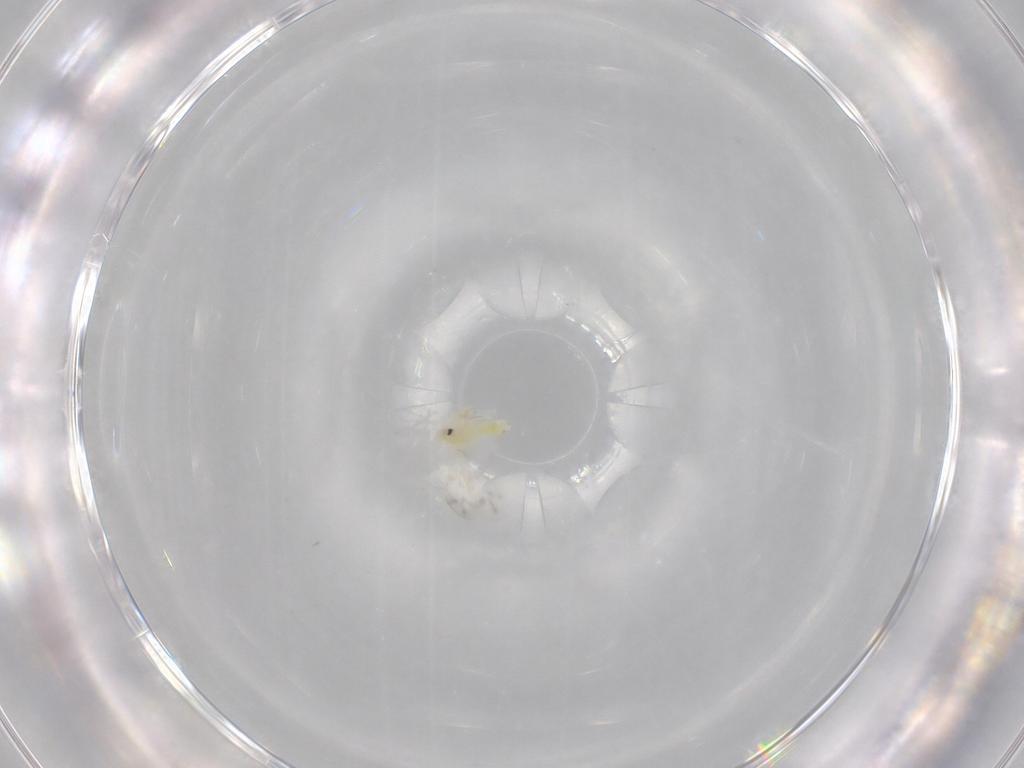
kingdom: Animalia
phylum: Arthropoda
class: Insecta
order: Hemiptera
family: Aleyrodidae
